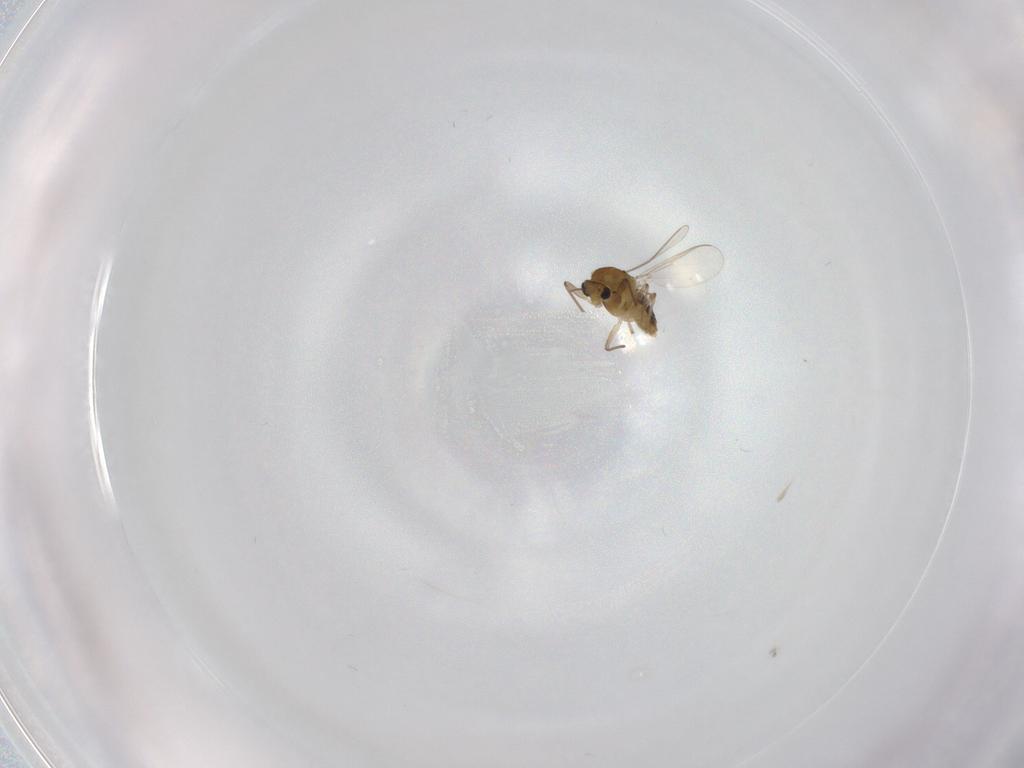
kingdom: Animalia
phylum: Arthropoda
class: Insecta
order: Diptera
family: Chironomidae
